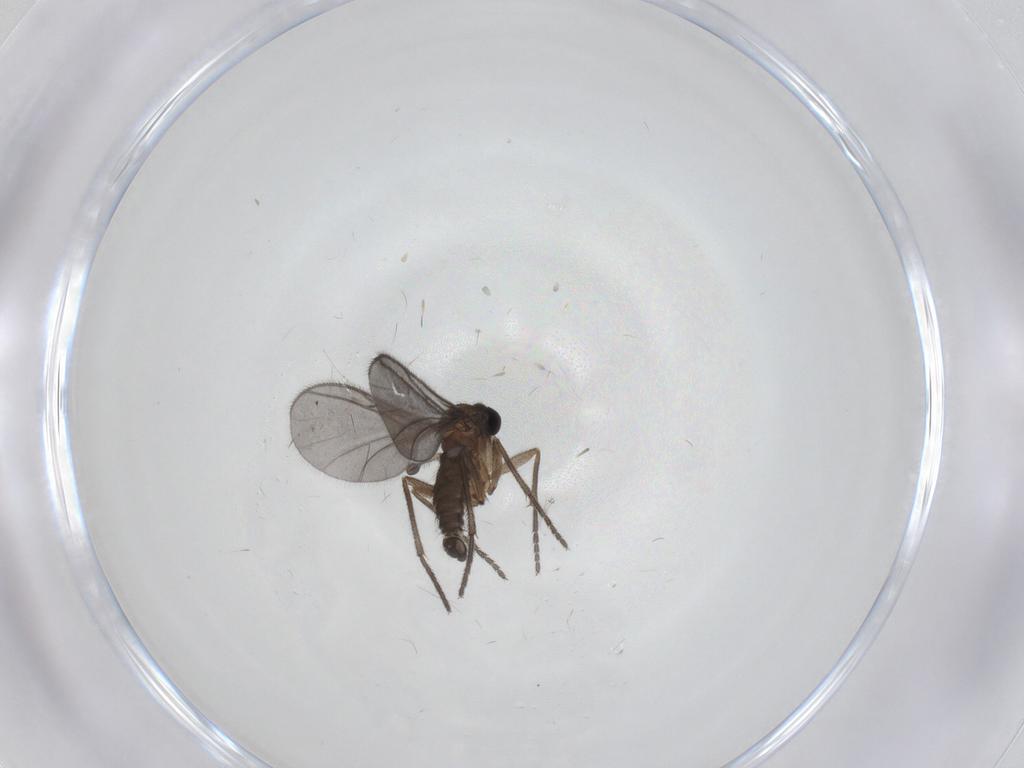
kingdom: Animalia
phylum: Arthropoda
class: Insecta
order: Diptera
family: Sciaridae
